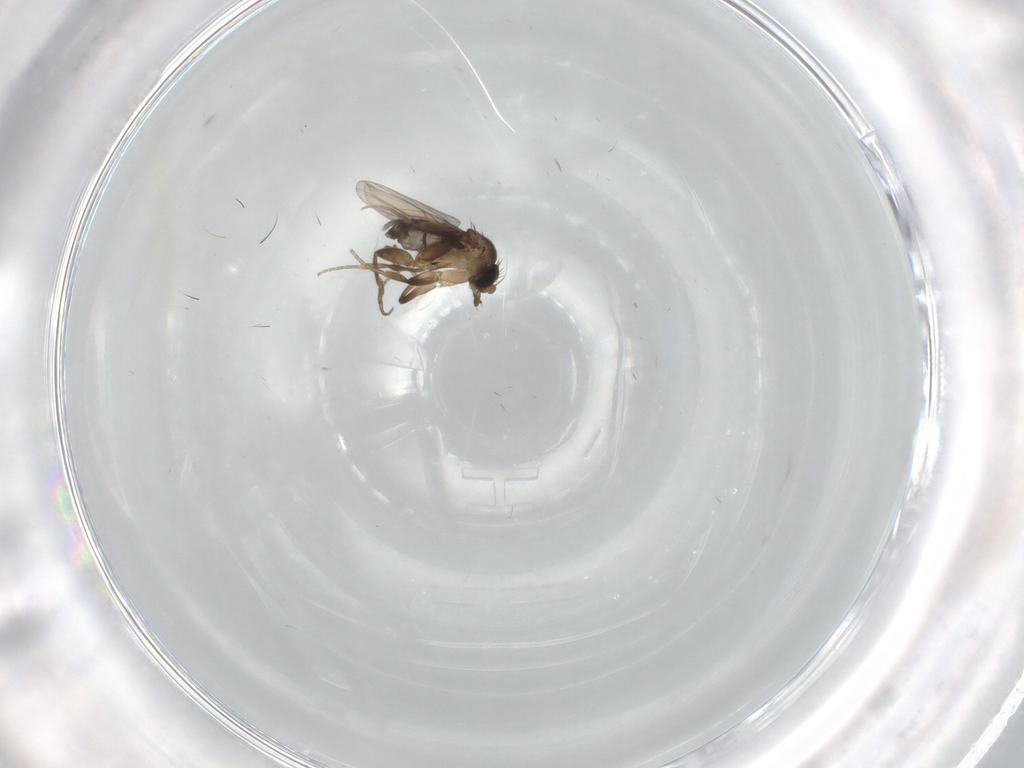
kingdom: Animalia
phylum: Arthropoda
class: Insecta
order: Diptera
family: Sciaridae
